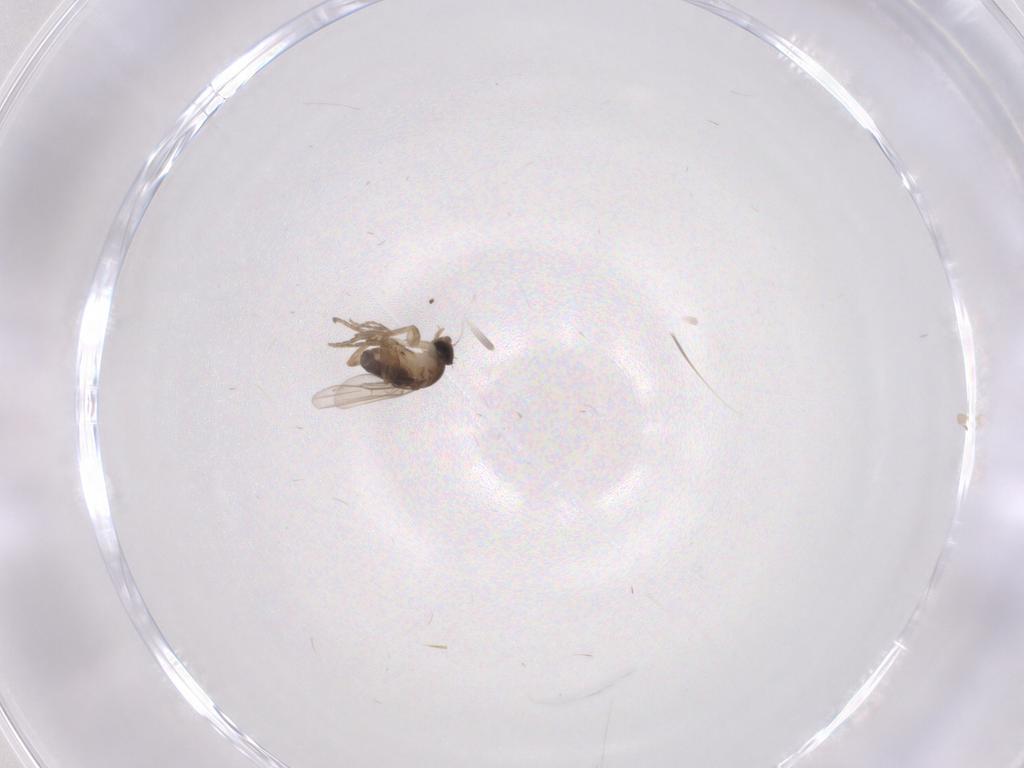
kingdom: Animalia
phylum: Arthropoda
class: Insecta
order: Diptera
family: Phoridae
